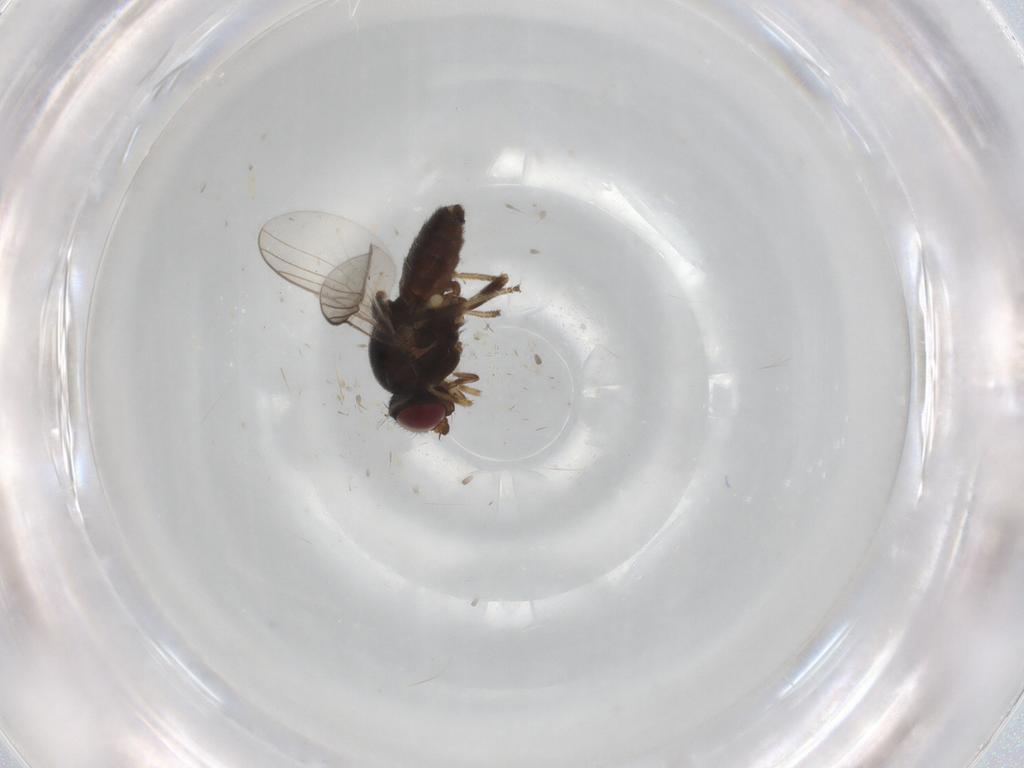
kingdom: Animalia
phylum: Arthropoda
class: Insecta
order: Diptera
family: Chloropidae
